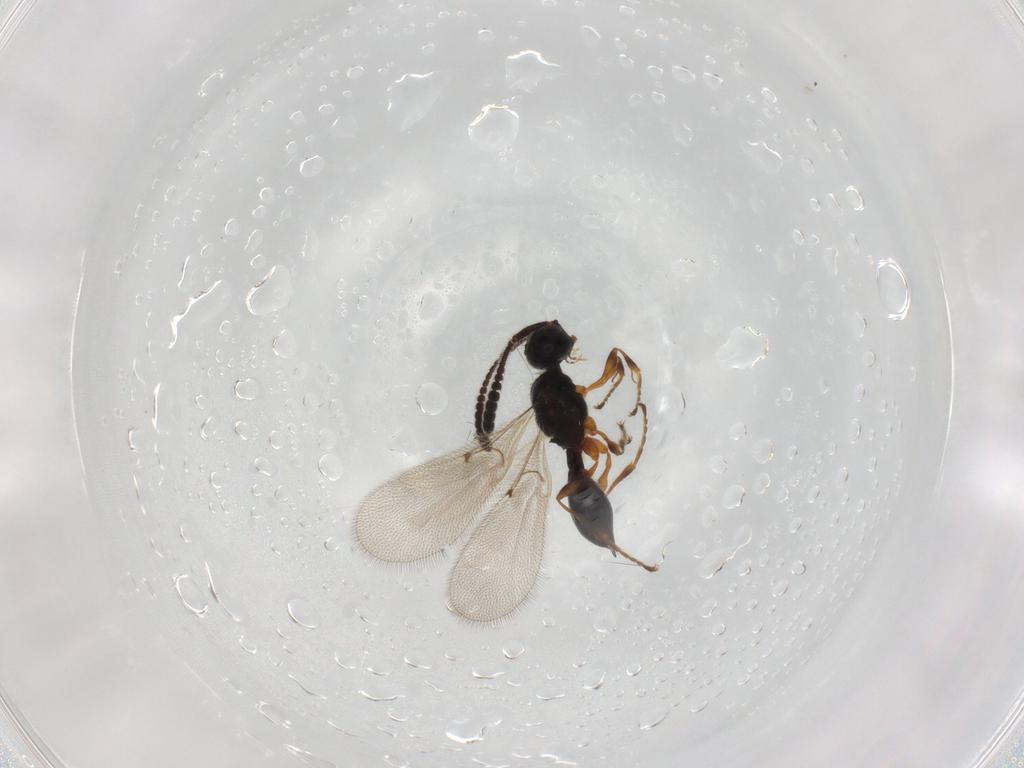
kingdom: Animalia
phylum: Arthropoda
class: Insecta
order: Hymenoptera
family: Diapriidae
